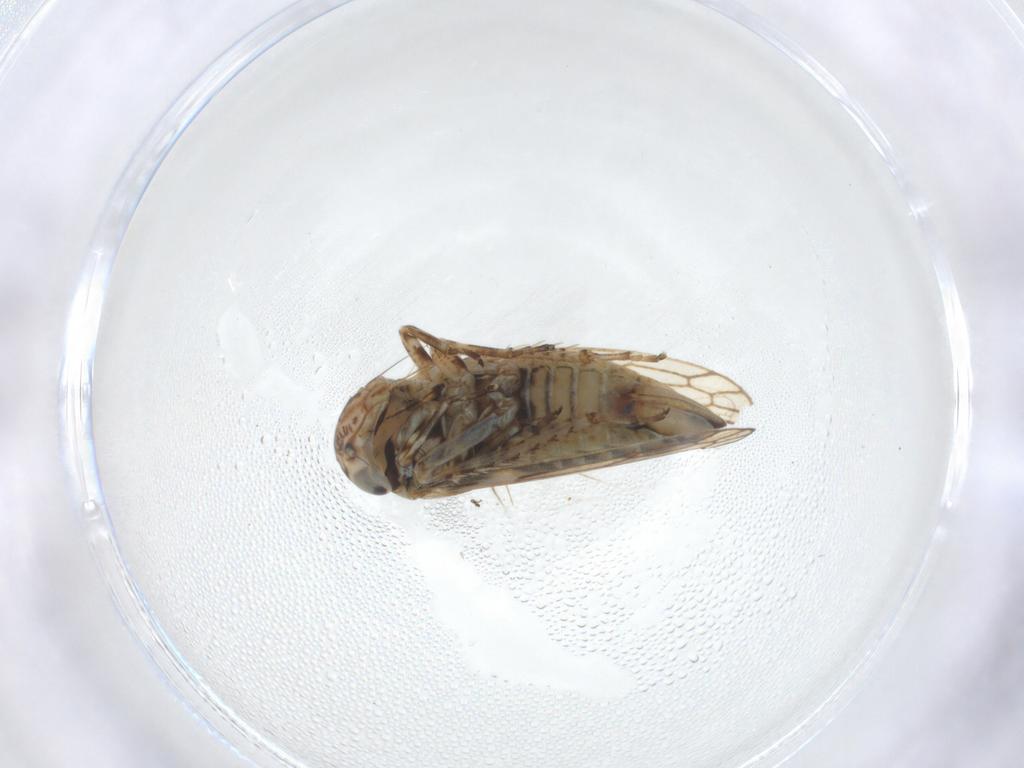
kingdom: Animalia
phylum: Arthropoda
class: Insecta
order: Hemiptera
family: Cicadellidae
